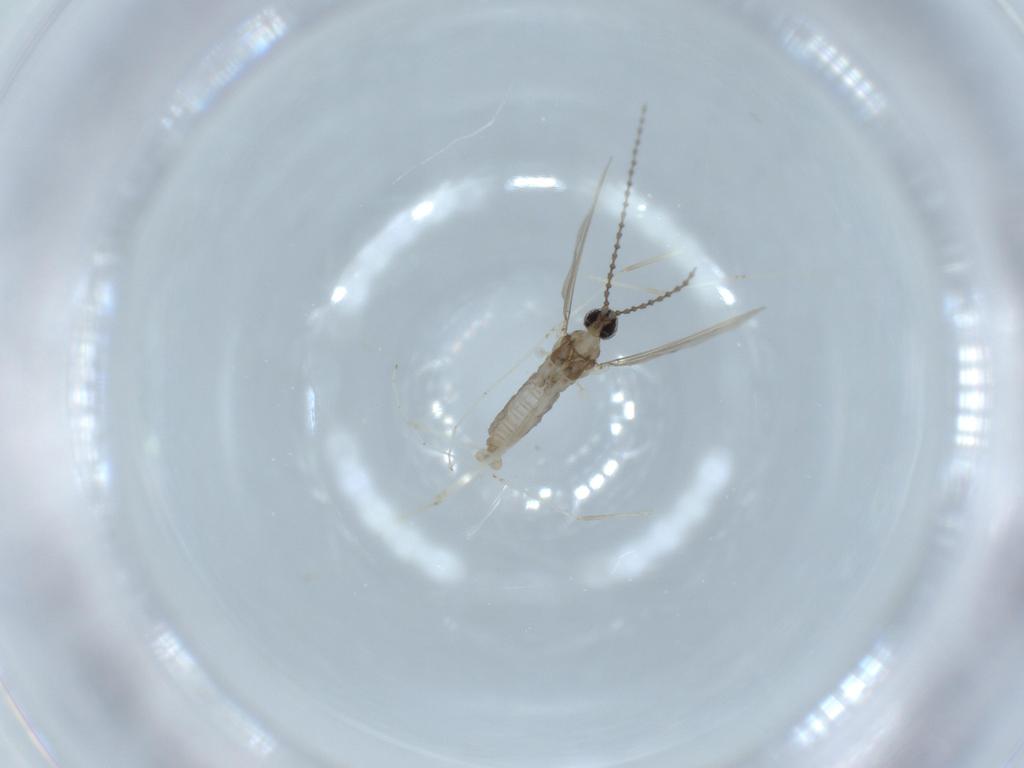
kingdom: Animalia
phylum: Arthropoda
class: Insecta
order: Diptera
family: Cecidomyiidae
